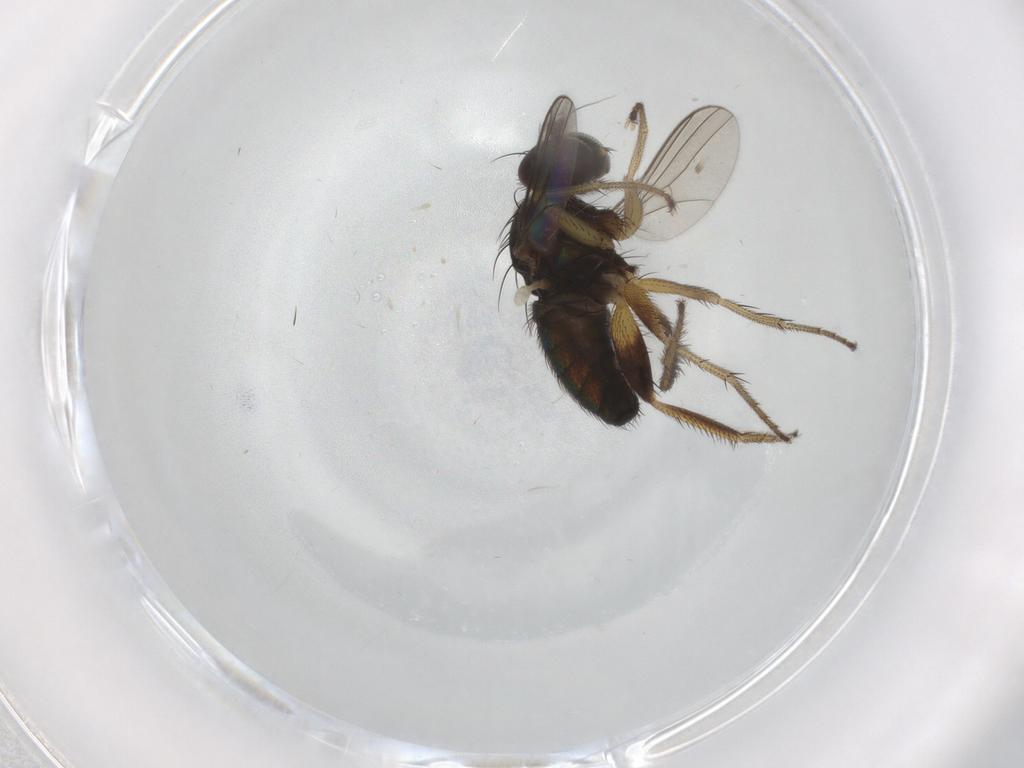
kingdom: Animalia
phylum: Arthropoda
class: Insecta
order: Diptera
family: Dolichopodidae
